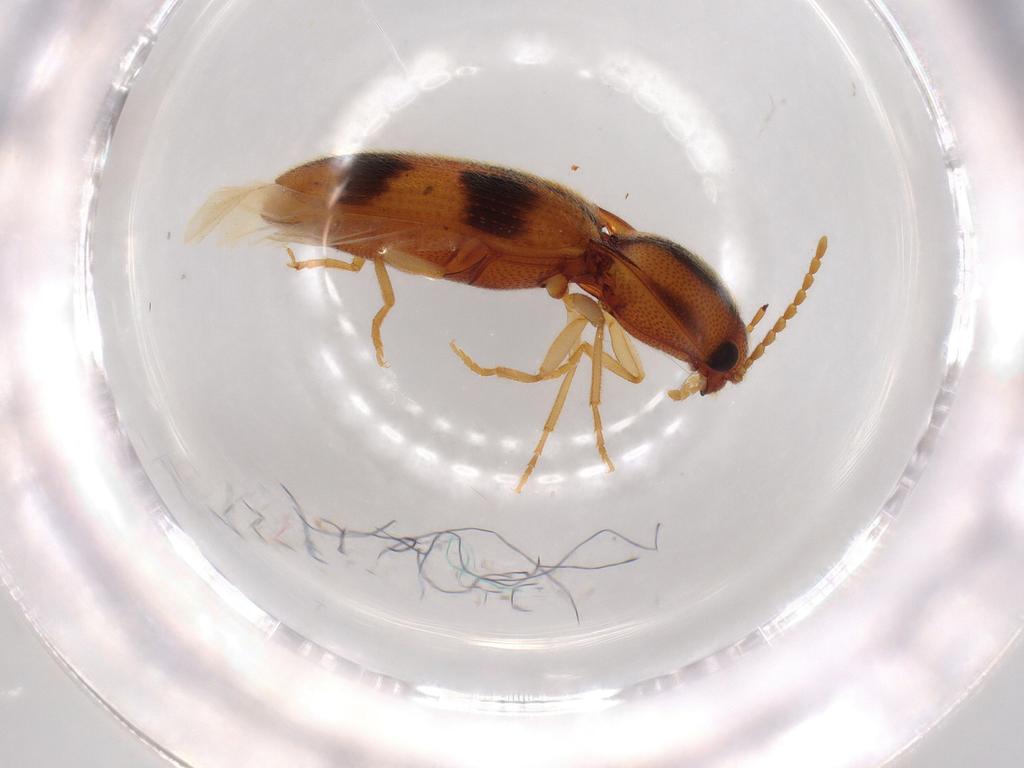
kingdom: Animalia
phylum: Arthropoda
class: Insecta
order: Coleoptera
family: Elateridae
